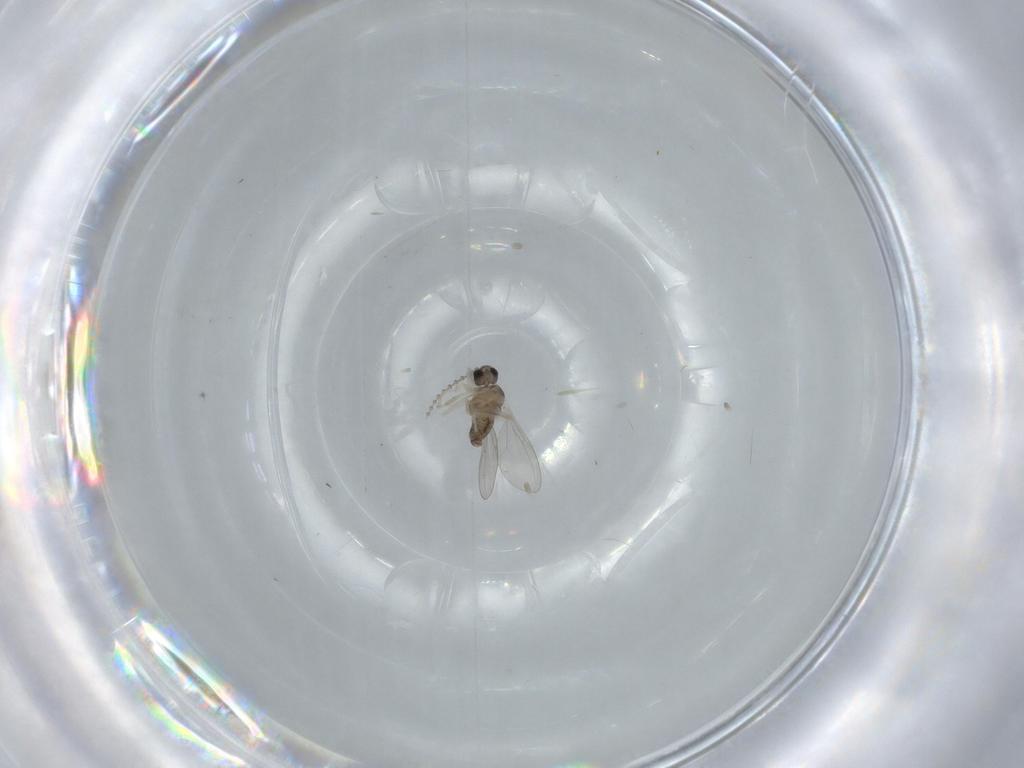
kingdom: Animalia
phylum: Arthropoda
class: Insecta
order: Diptera
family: Cecidomyiidae
